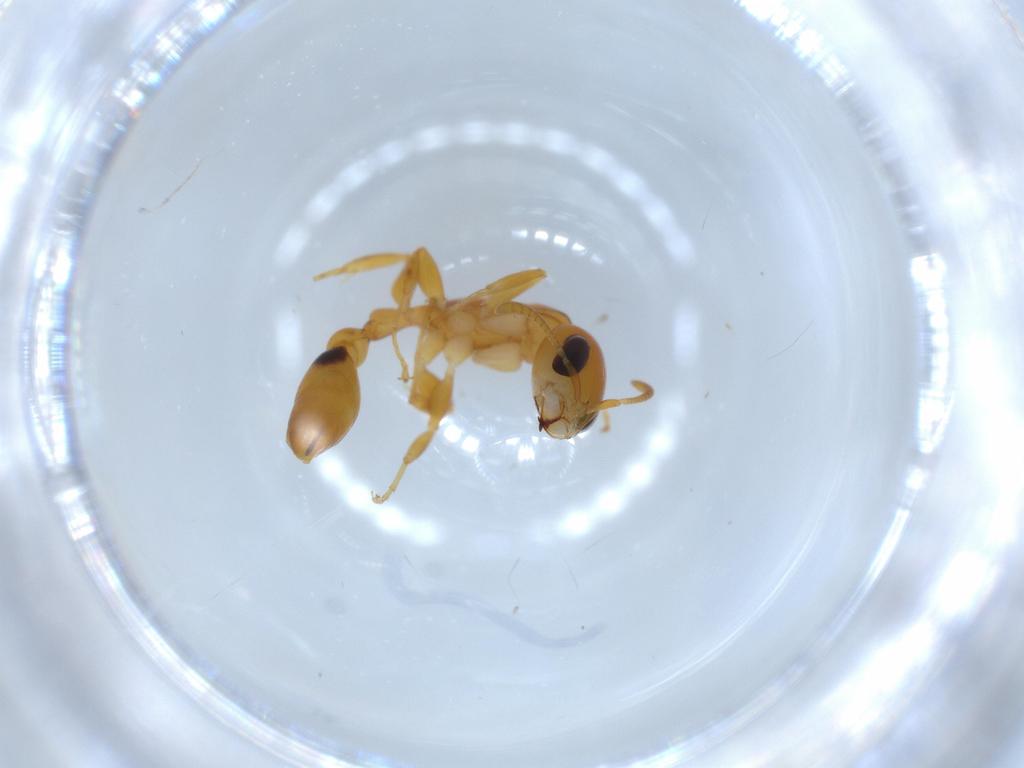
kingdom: Animalia
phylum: Arthropoda
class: Insecta
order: Hymenoptera
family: Formicidae
